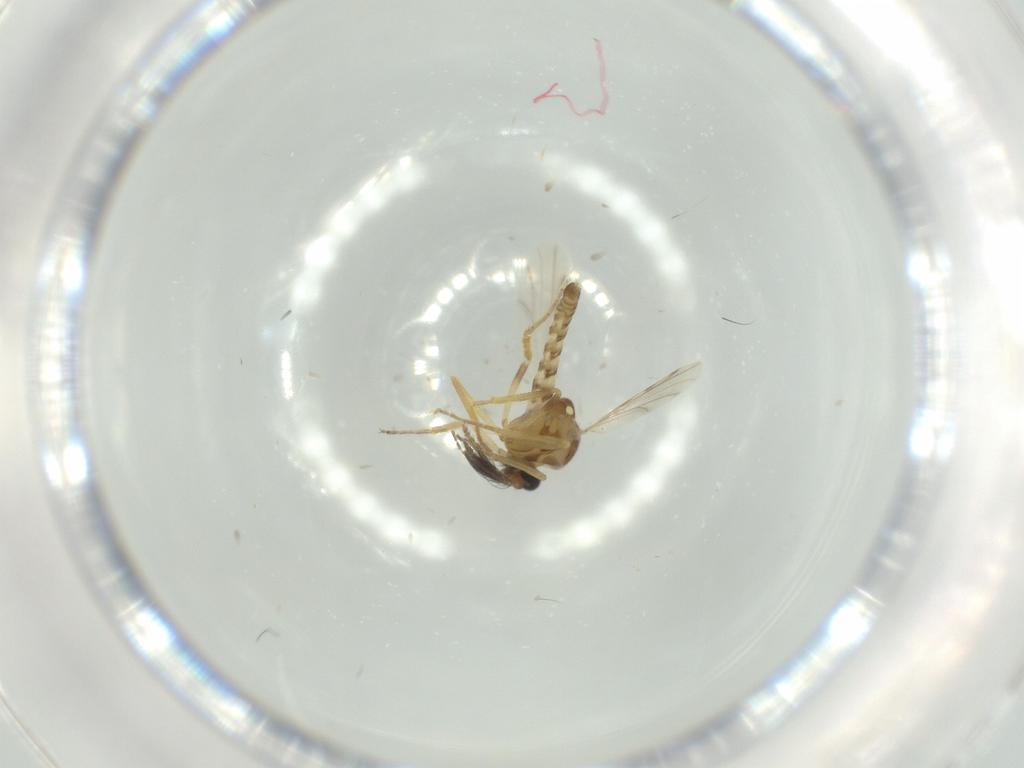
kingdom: Animalia
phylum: Arthropoda
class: Insecta
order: Diptera
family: Ceratopogonidae
